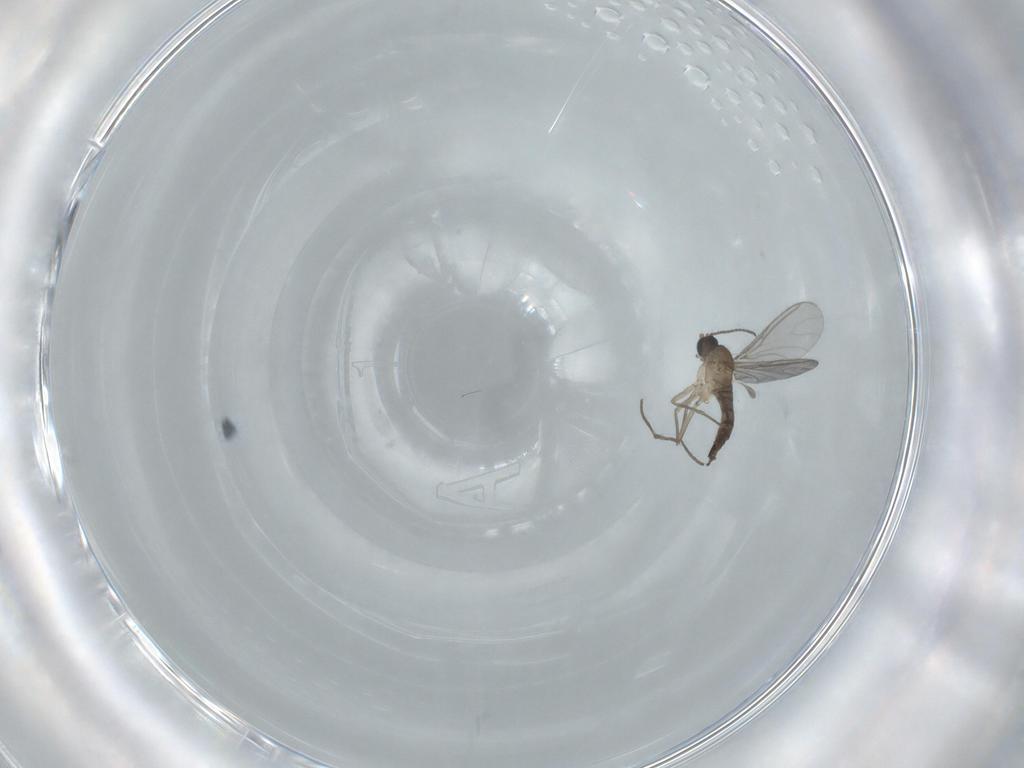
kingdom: Animalia
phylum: Arthropoda
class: Insecta
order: Diptera
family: Sciaridae
